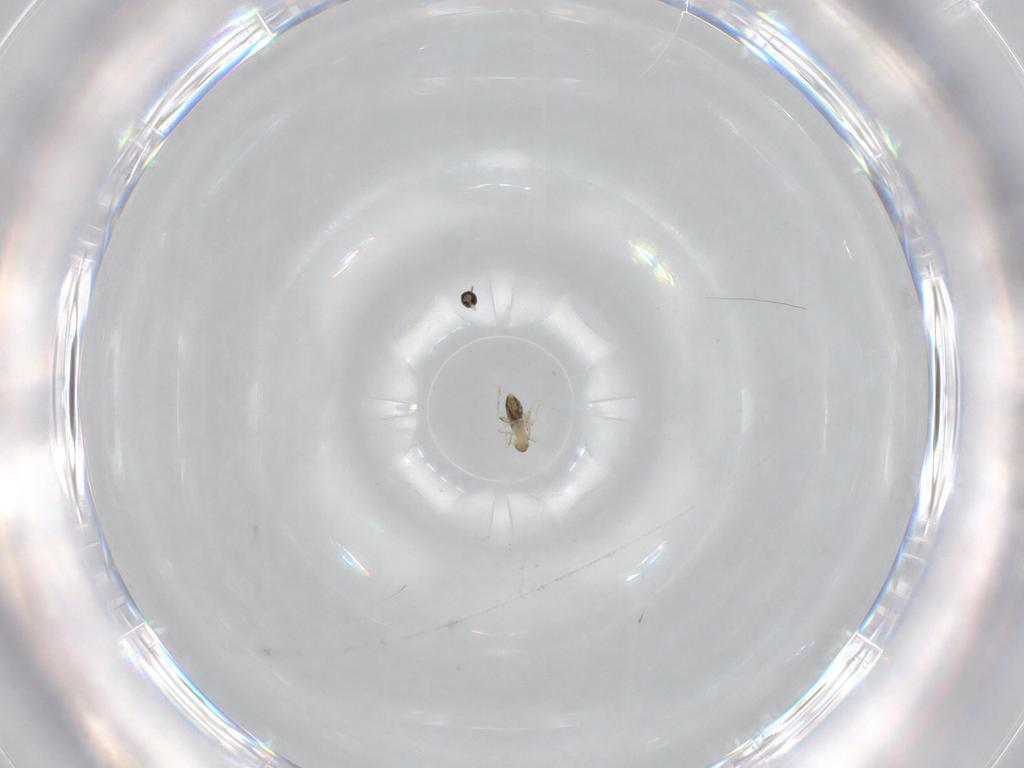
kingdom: Animalia
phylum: Arthropoda
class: Insecta
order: Diptera
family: Cecidomyiidae
